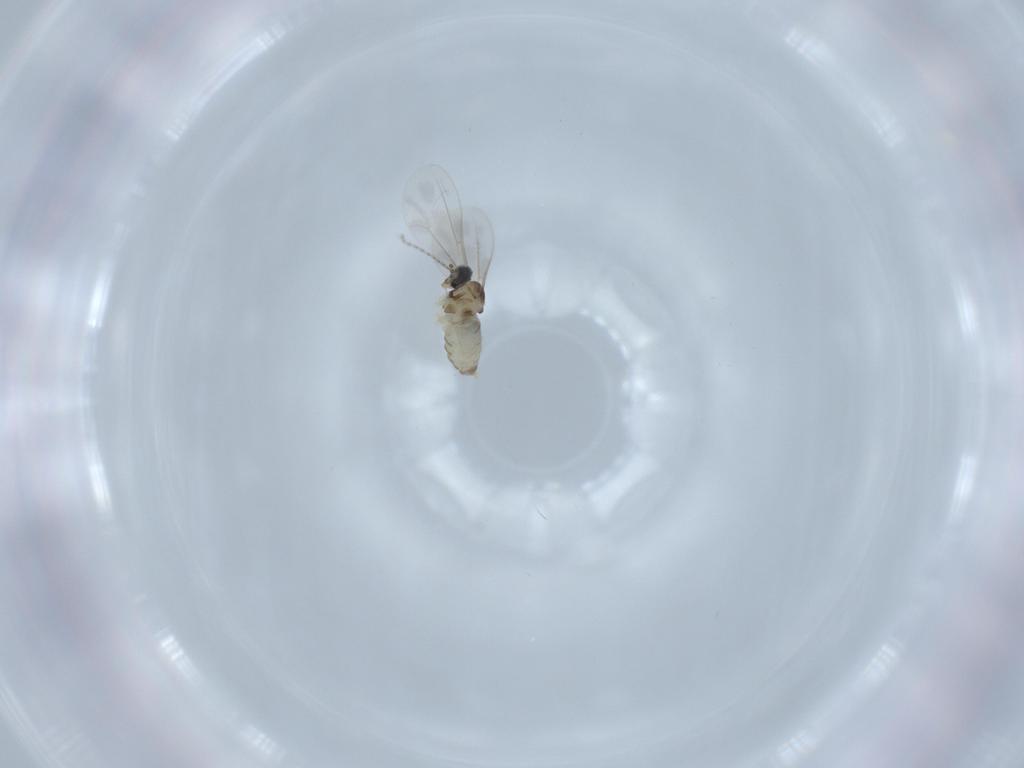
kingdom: Animalia
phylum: Arthropoda
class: Insecta
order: Diptera
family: Cecidomyiidae
